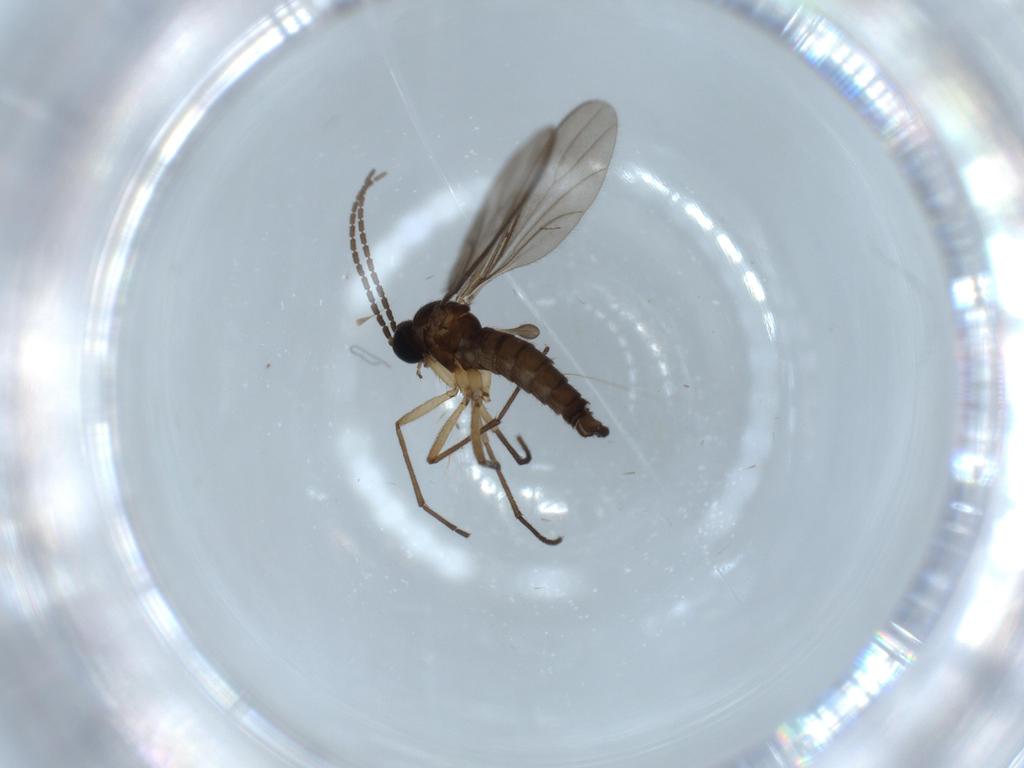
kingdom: Animalia
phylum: Arthropoda
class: Insecta
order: Diptera
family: Sciaridae
